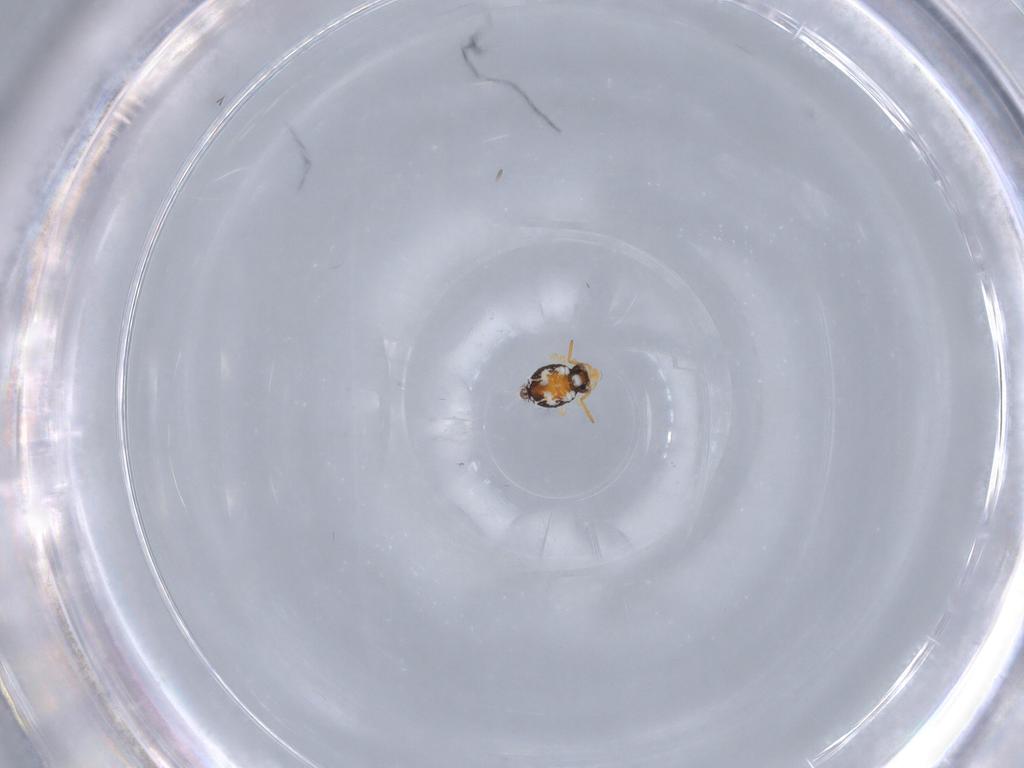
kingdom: Animalia
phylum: Arthropoda
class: Collembola
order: Symphypleona
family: Katiannidae
